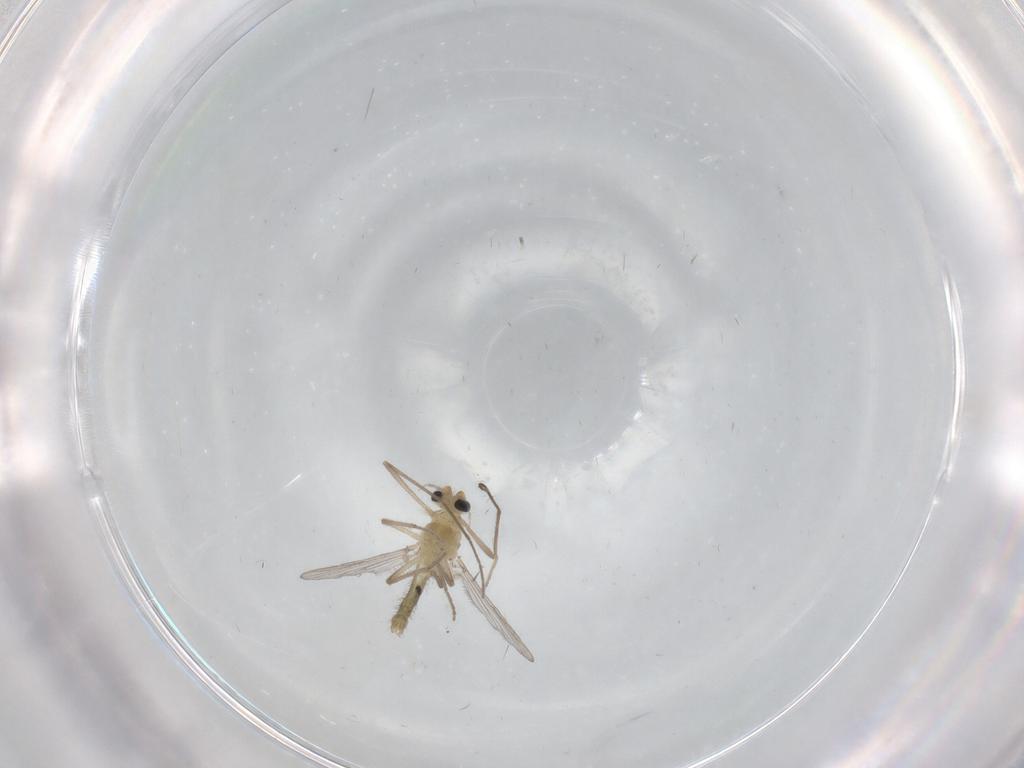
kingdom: Animalia
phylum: Arthropoda
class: Insecta
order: Diptera
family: Chironomidae
